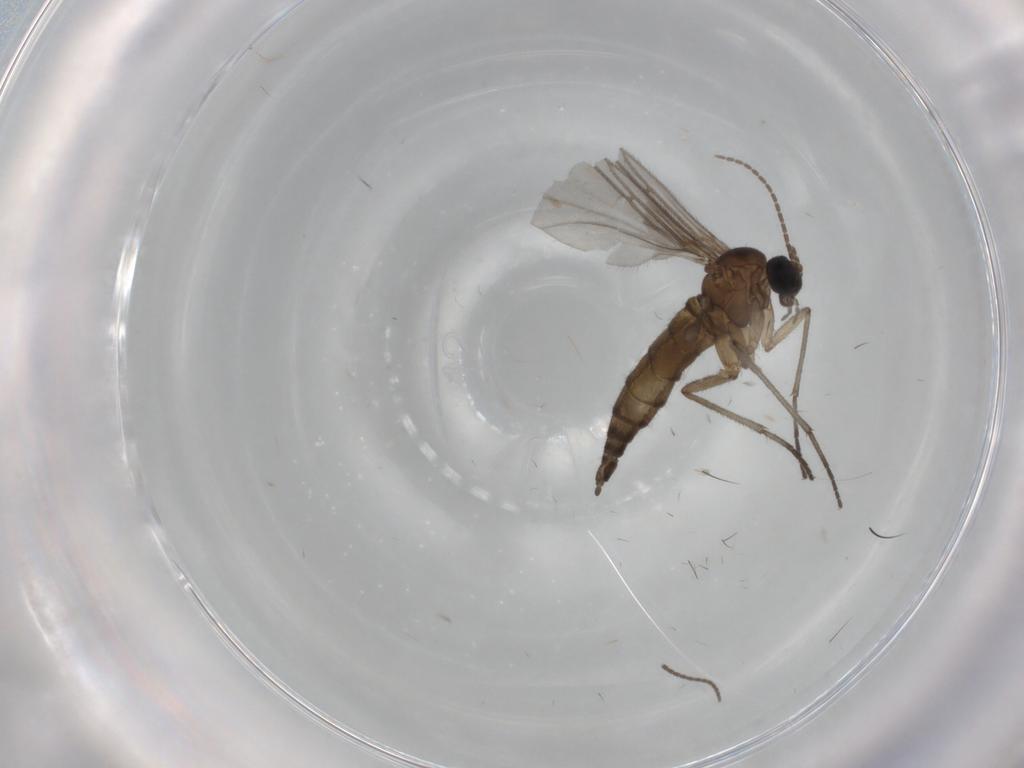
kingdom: Animalia
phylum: Arthropoda
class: Insecta
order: Diptera
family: Sciaridae
